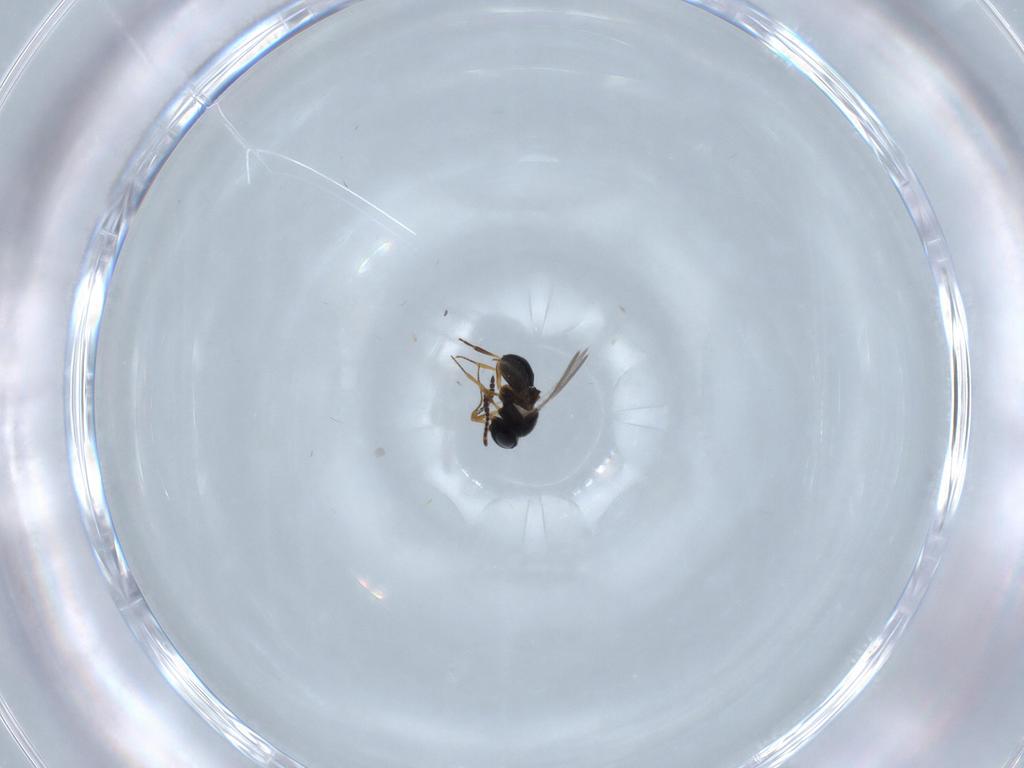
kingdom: Animalia
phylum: Arthropoda
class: Insecta
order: Hymenoptera
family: Scelionidae
